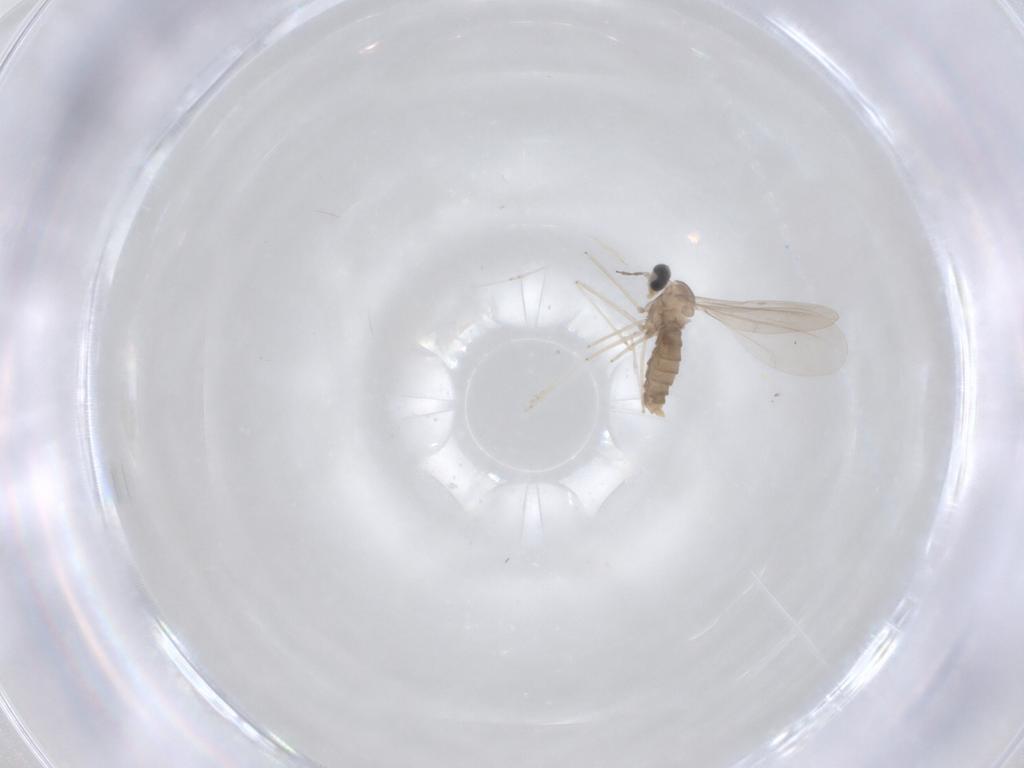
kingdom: Animalia
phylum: Arthropoda
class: Insecta
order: Diptera
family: Cecidomyiidae
